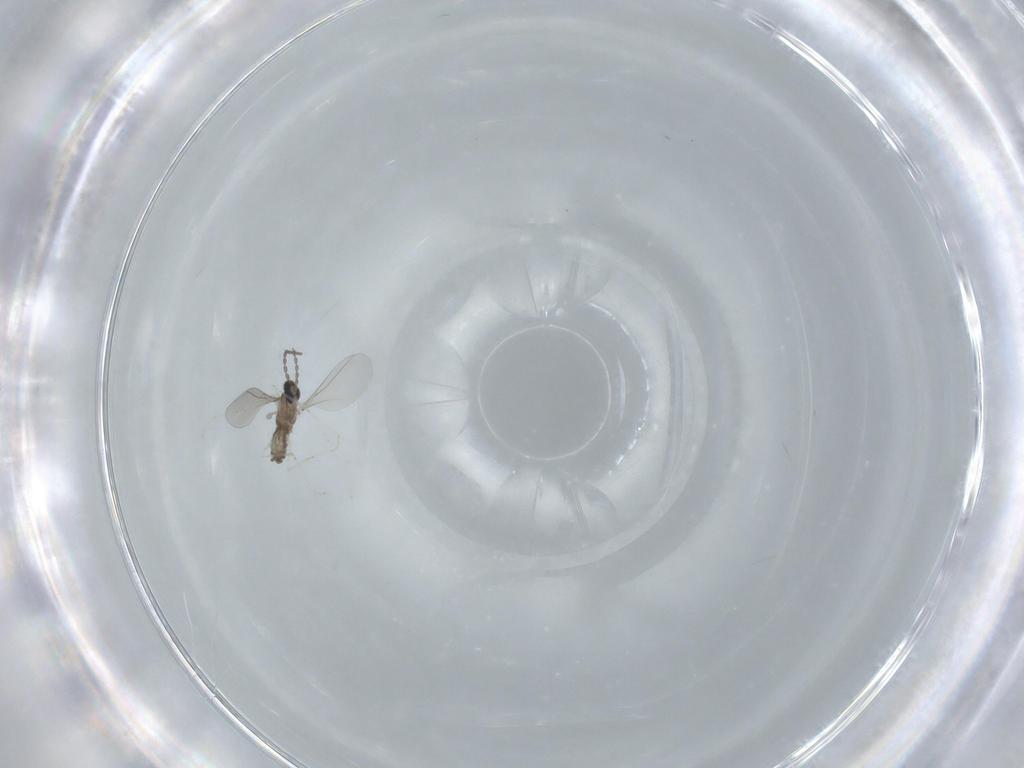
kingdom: Animalia
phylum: Arthropoda
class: Insecta
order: Diptera
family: Cecidomyiidae
